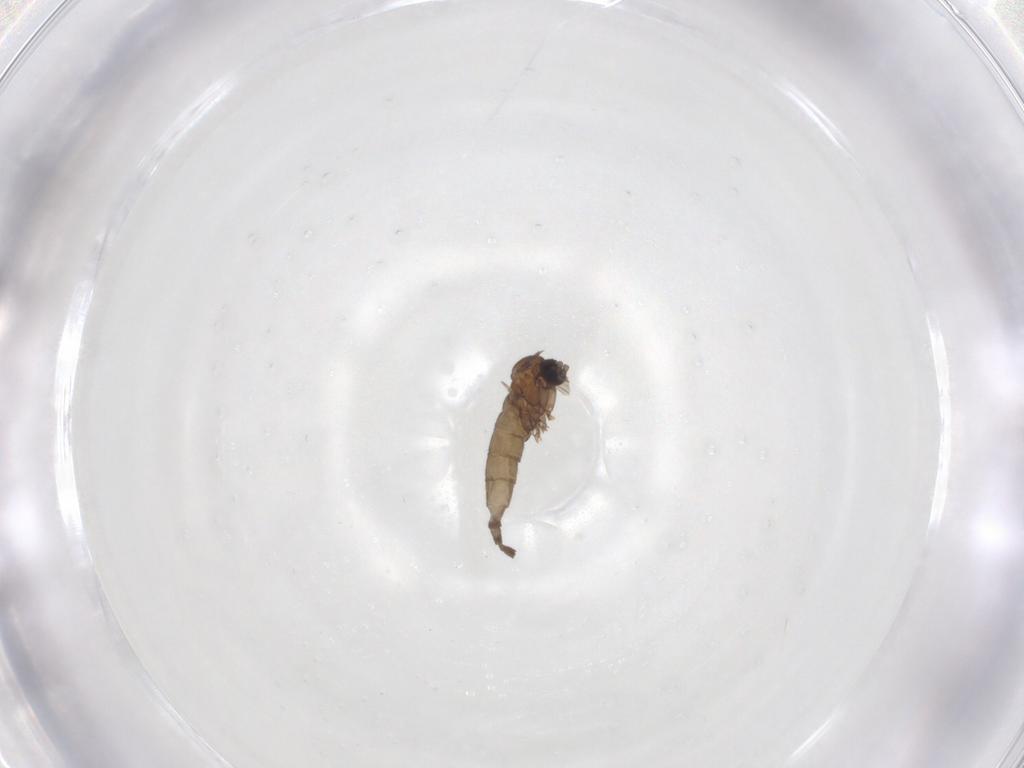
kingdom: Animalia
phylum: Arthropoda
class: Insecta
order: Diptera
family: Sciaridae
